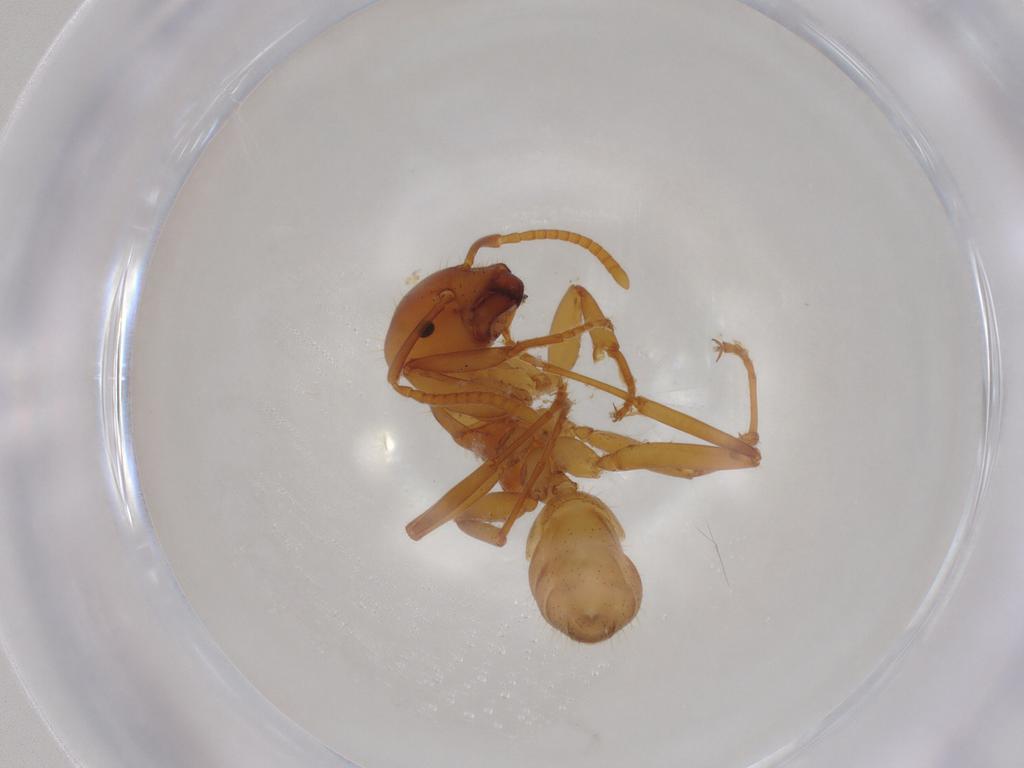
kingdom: Animalia
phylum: Arthropoda
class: Insecta
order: Hymenoptera
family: Formicidae
